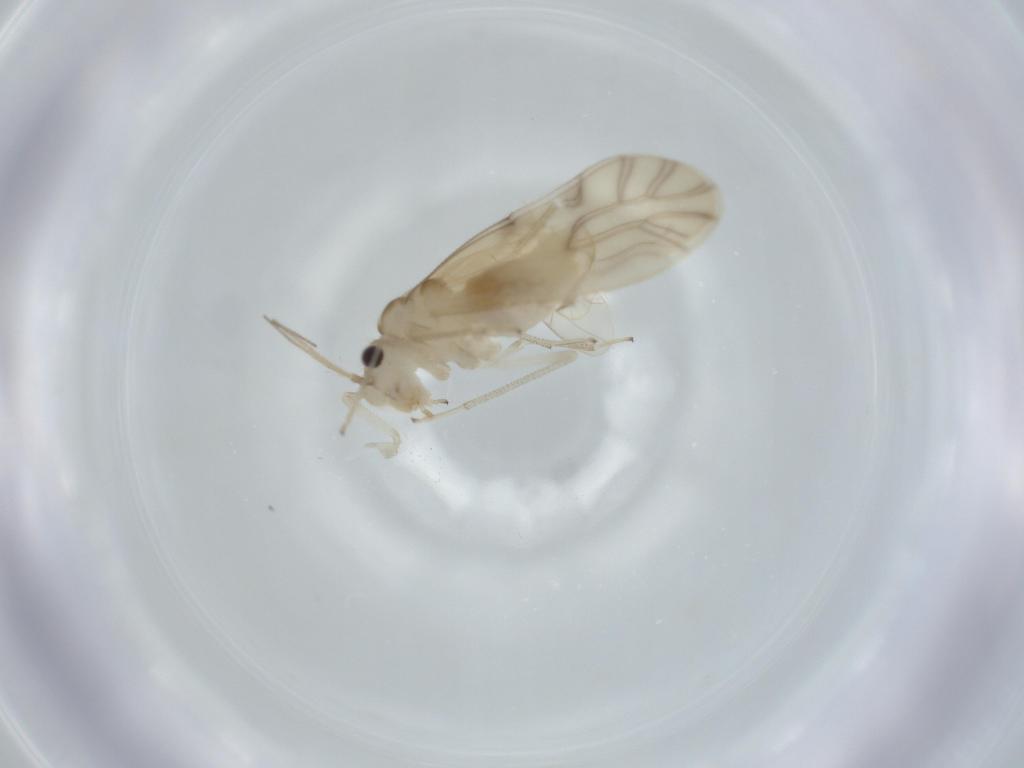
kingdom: Animalia
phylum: Arthropoda
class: Insecta
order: Psocodea
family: Caeciliusidae
